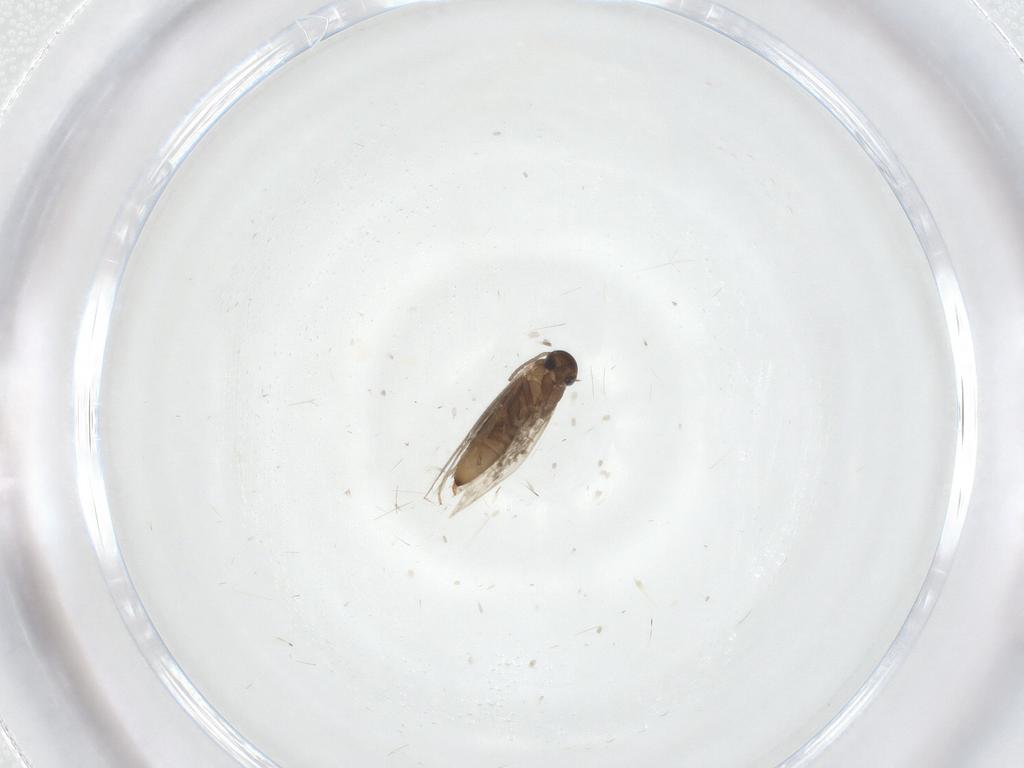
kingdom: Animalia
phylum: Arthropoda
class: Insecta
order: Lepidoptera
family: Heliozelidae
